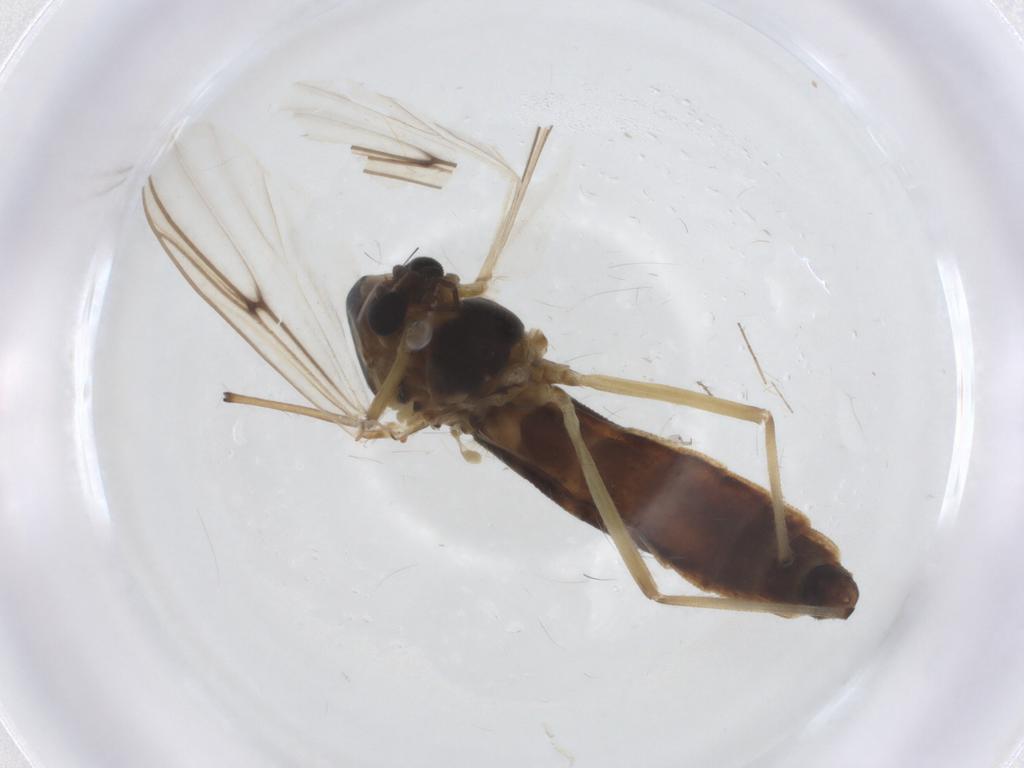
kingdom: Animalia
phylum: Arthropoda
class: Insecta
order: Diptera
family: Chironomidae
